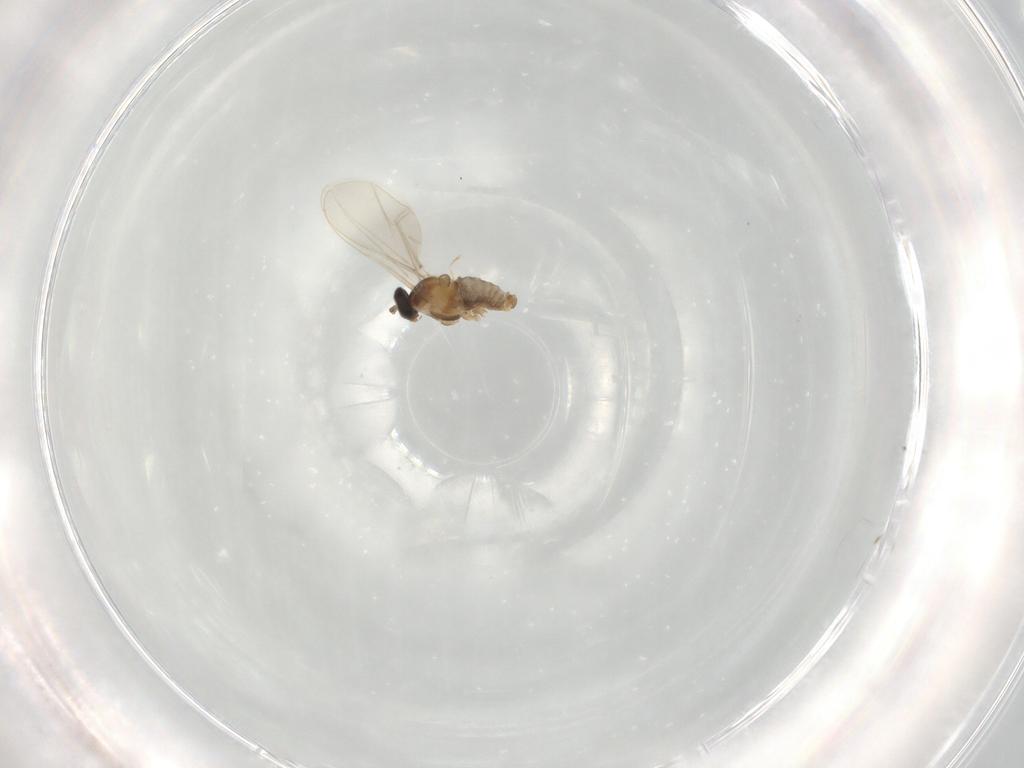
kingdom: Animalia
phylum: Arthropoda
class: Insecta
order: Diptera
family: Cecidomyiidae
